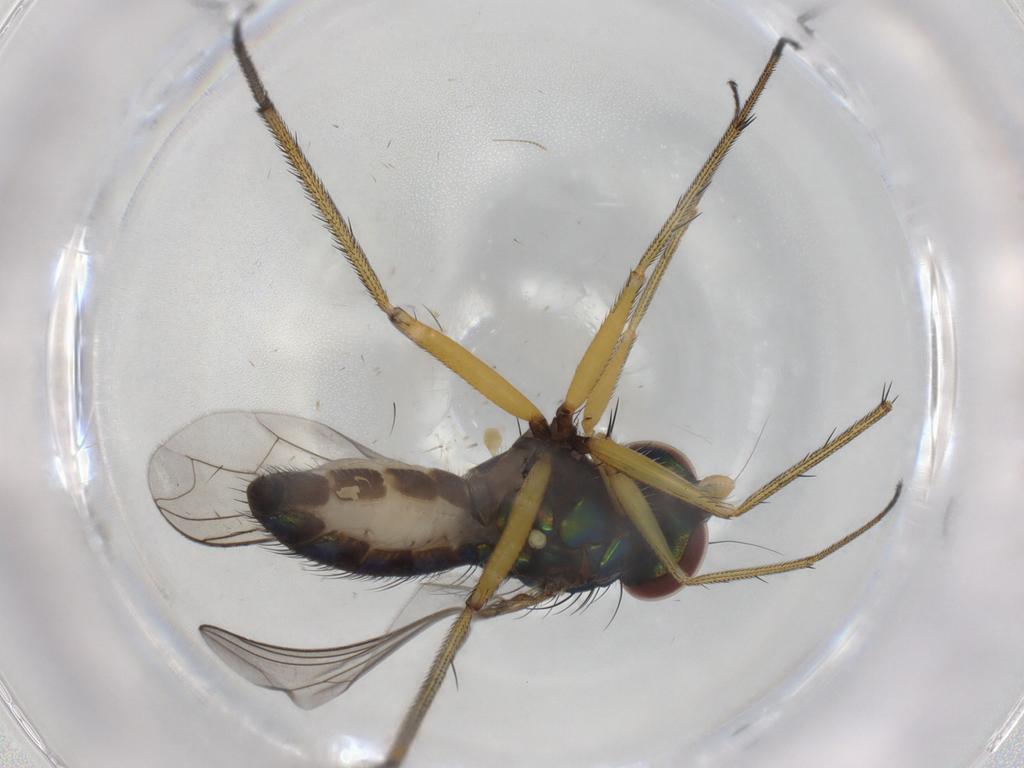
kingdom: Animalia
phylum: Arthropoda
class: Insecta
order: Diptera
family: Dolichopodidae
